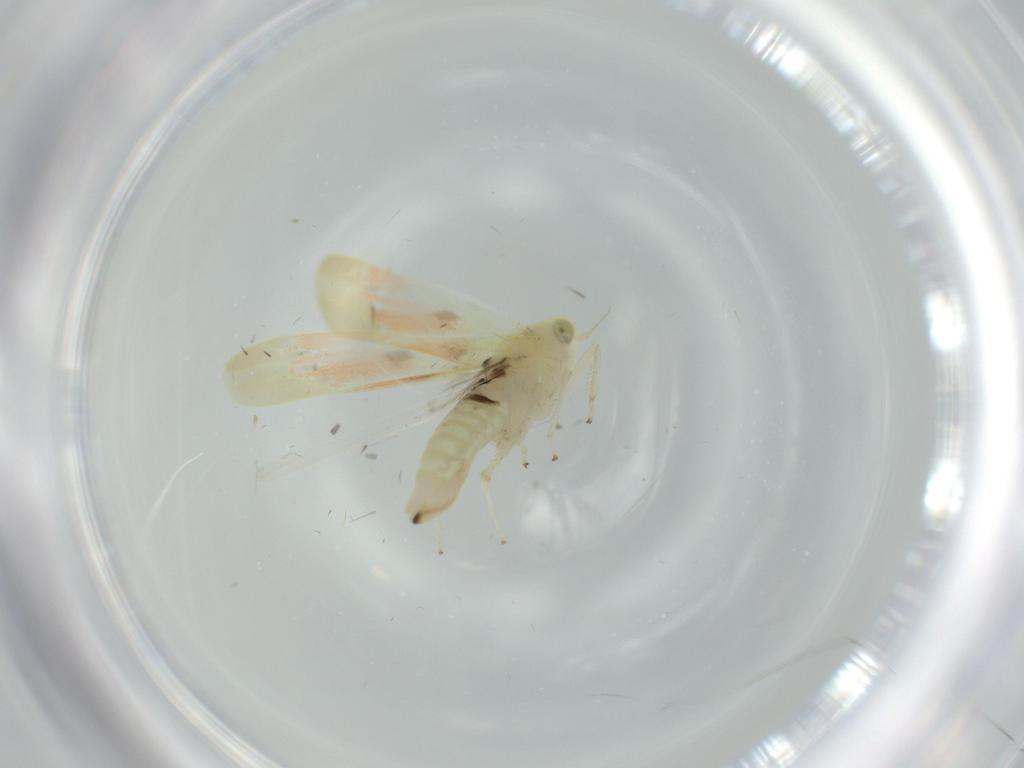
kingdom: Animalia
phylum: Arthropoda
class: Insecta
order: Hemiptera
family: Cicadellidae
